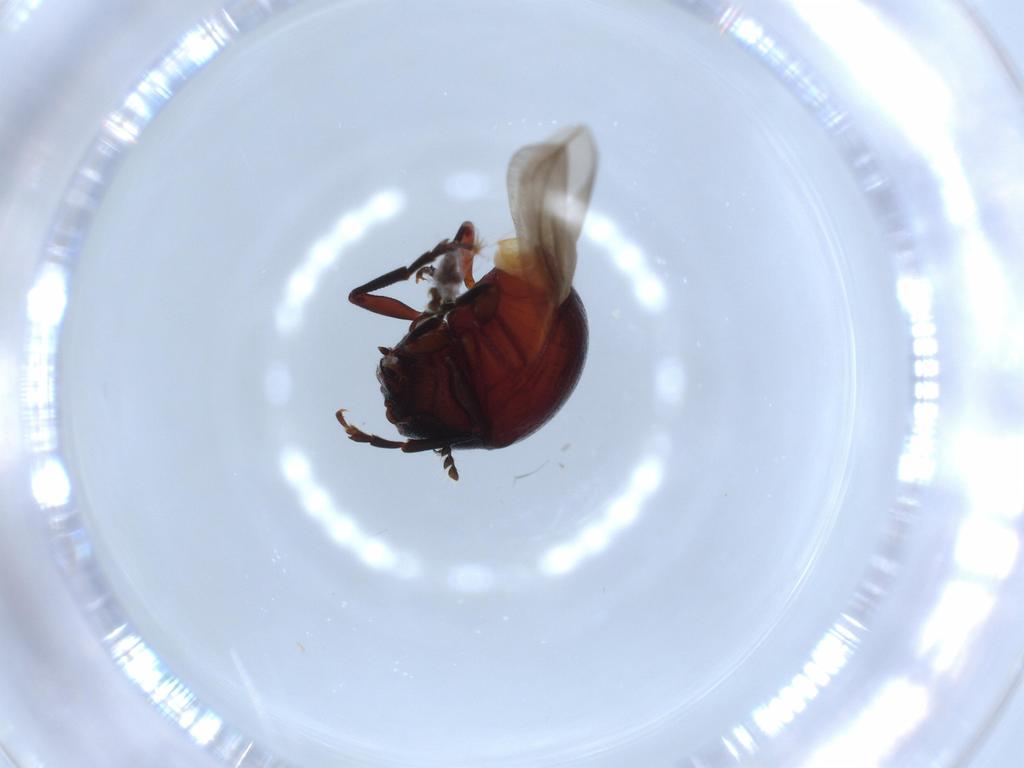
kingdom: Animalia
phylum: Arthropoda
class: Insecta
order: Coleoptera
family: Anthribidae
